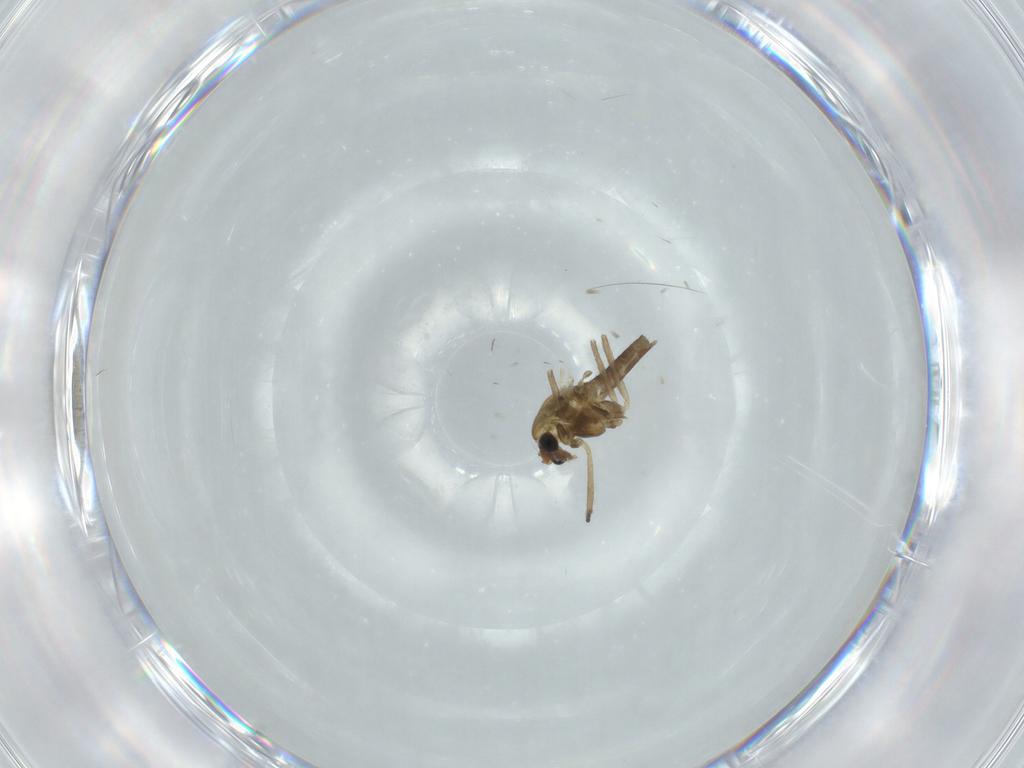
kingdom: Animalia
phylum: Arthropoda
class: Insecta
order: Diptera
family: Chironomidae
